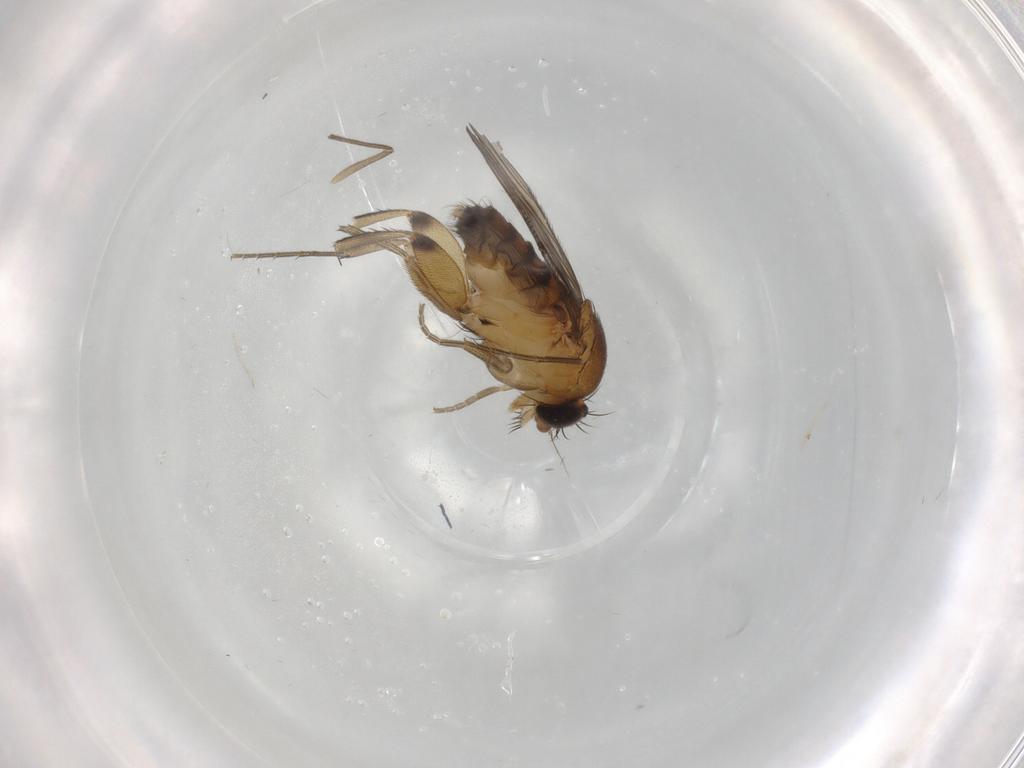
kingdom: Animalia
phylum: Arthropoda
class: Insecta
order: Diptera
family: Phoridae
